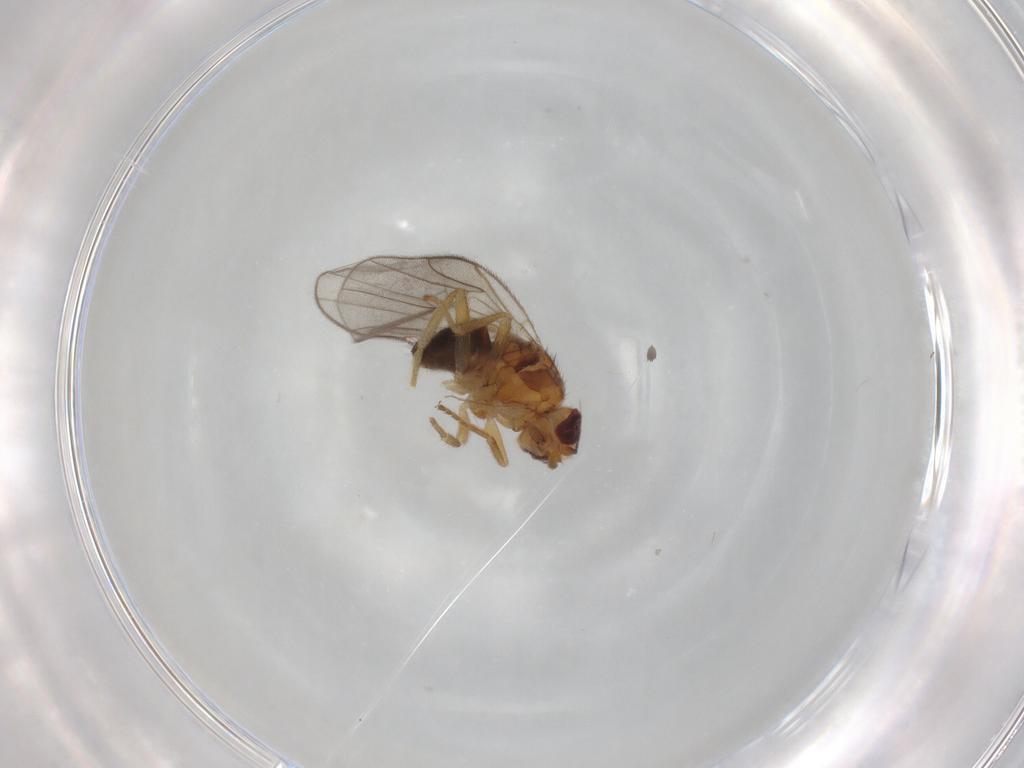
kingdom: Animalia
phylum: Arthropoda
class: Insecta
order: Diptera
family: Chloropidae
